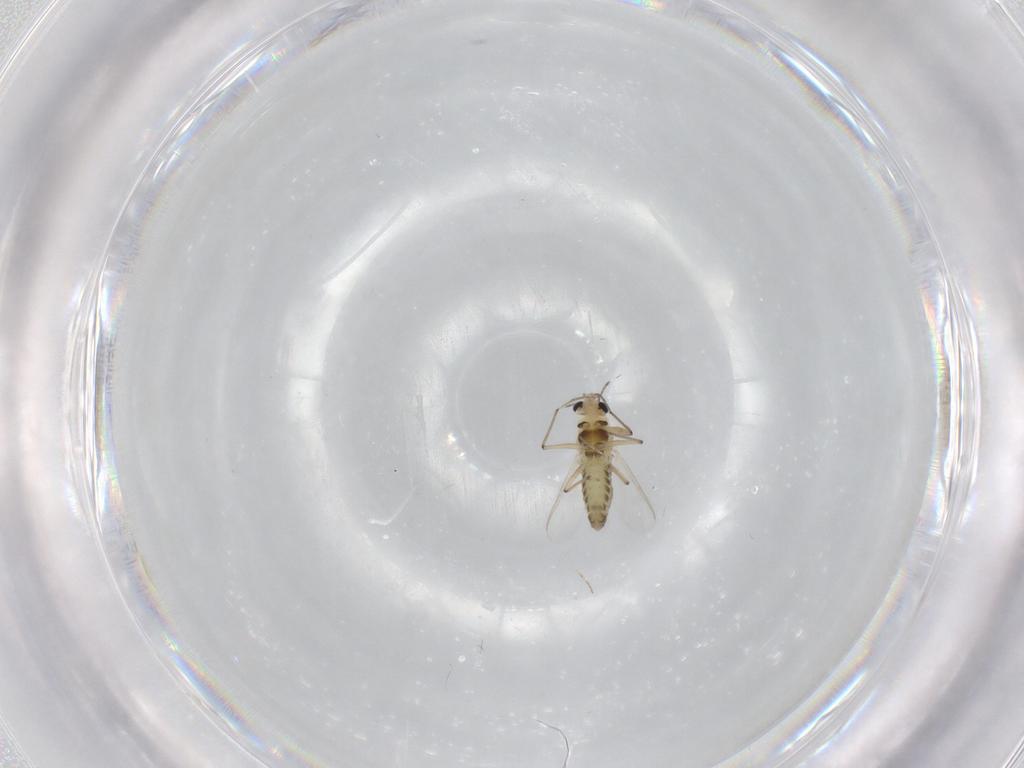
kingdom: Animalia
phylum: Arthropoda
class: Insecta
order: Diptera
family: Chironomidae
